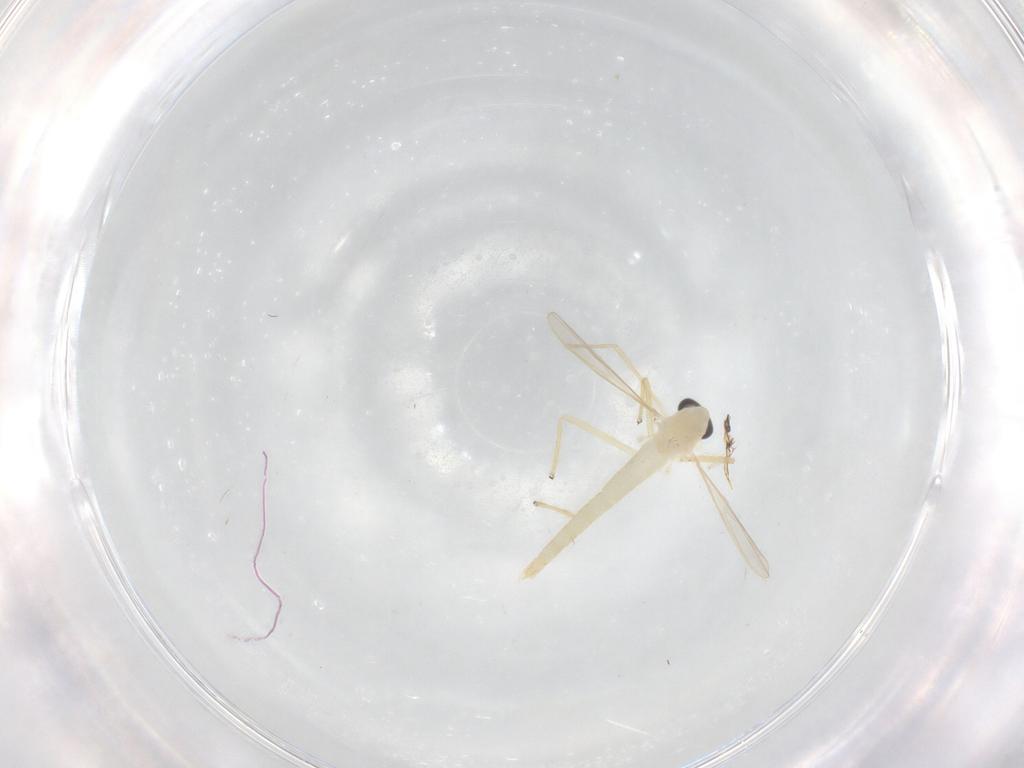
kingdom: Animalia
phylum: Arthropoda
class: Insecta
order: Diptera
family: Chironomidae
